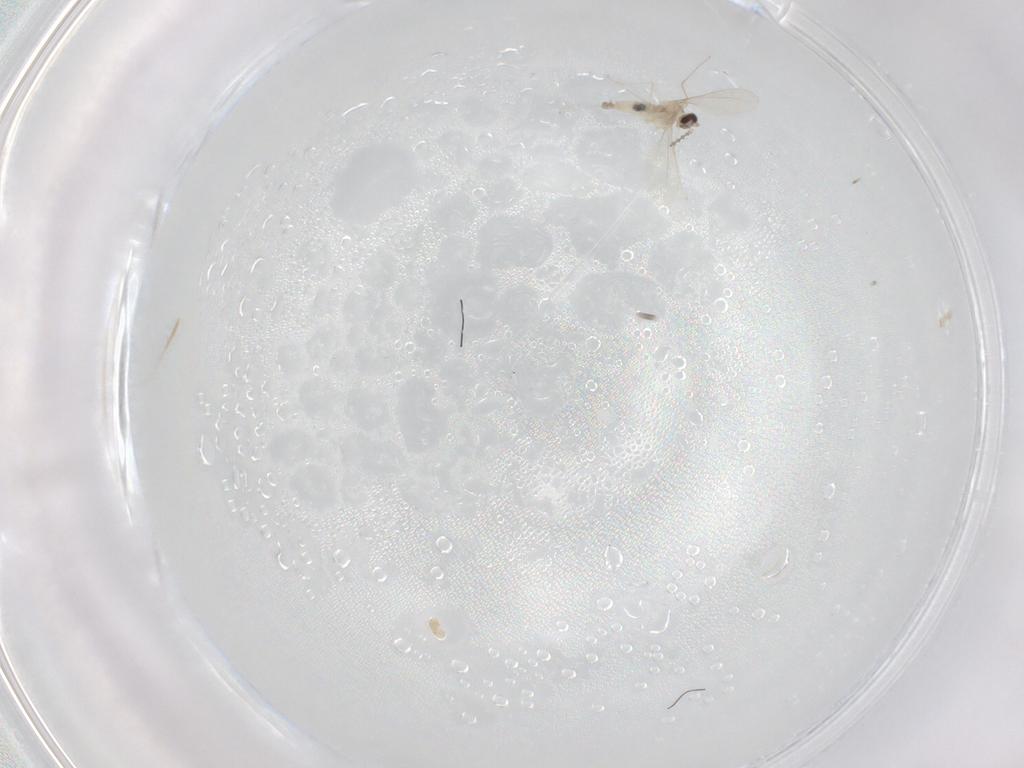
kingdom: Animalia
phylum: Arthropoda
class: Insecta
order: Diptera
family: Cecidomyiidae
